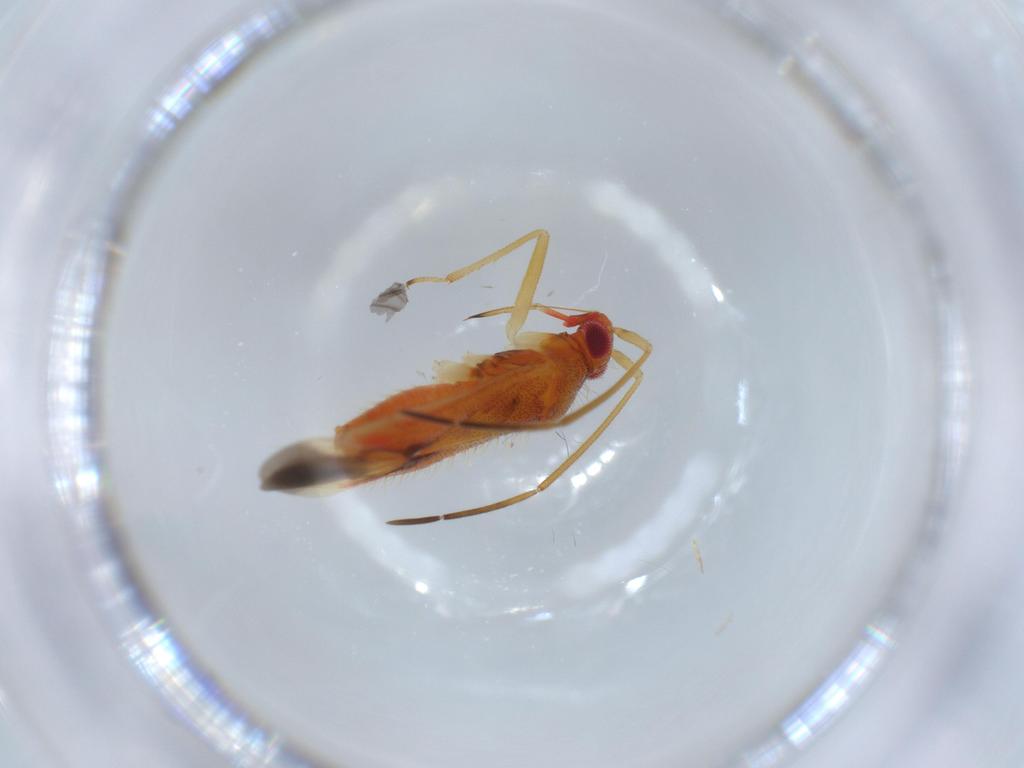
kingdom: Animalia
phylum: Arthropoda
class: Insecta
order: Hemiptera
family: Miridae
